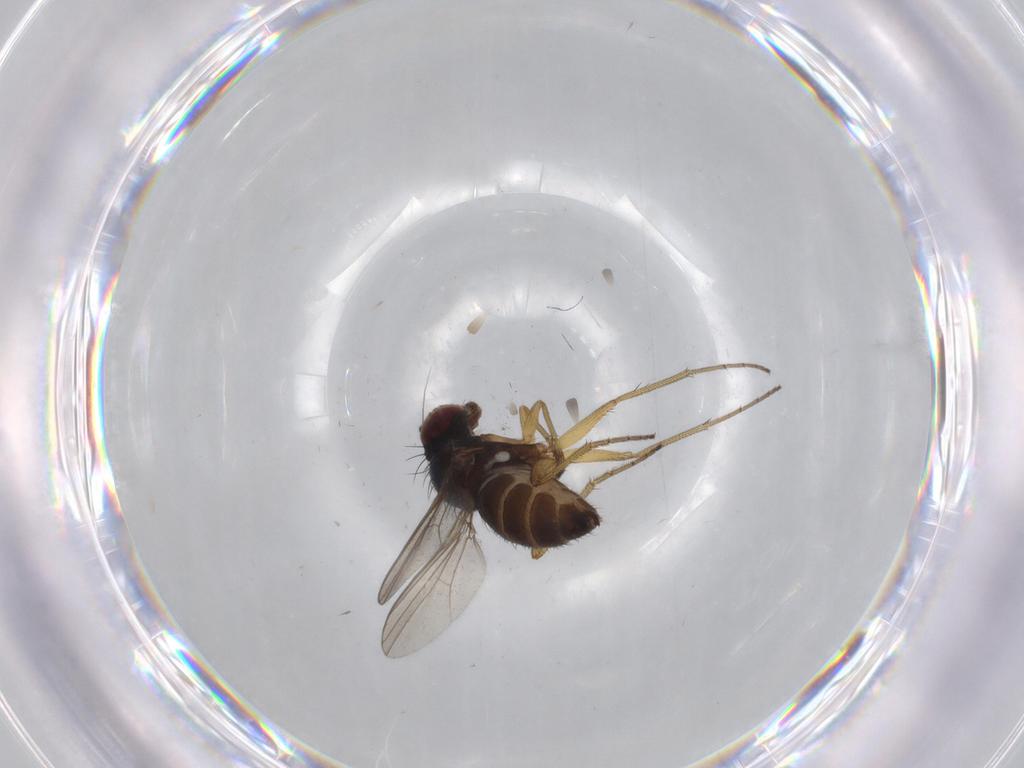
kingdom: Animalia
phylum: Arthropoda
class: Insecta
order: Diptera
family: Dolichopodidae
